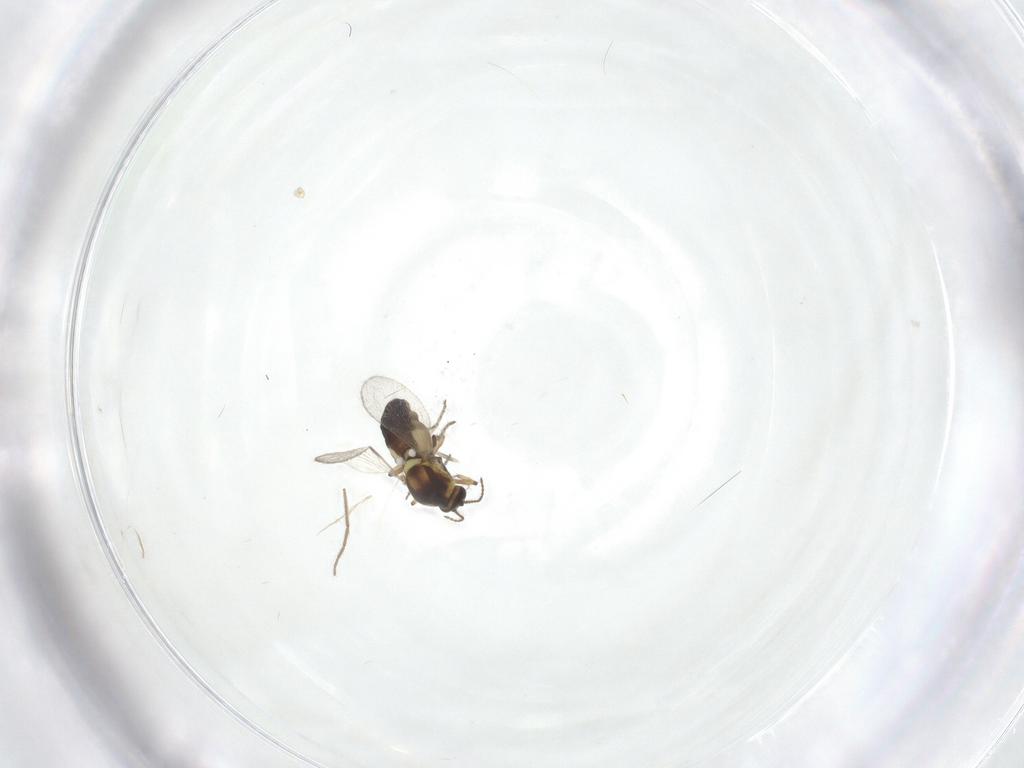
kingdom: Animalia
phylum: Arthropoda
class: Insecta
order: Diptera
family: Ceratopogonidae
